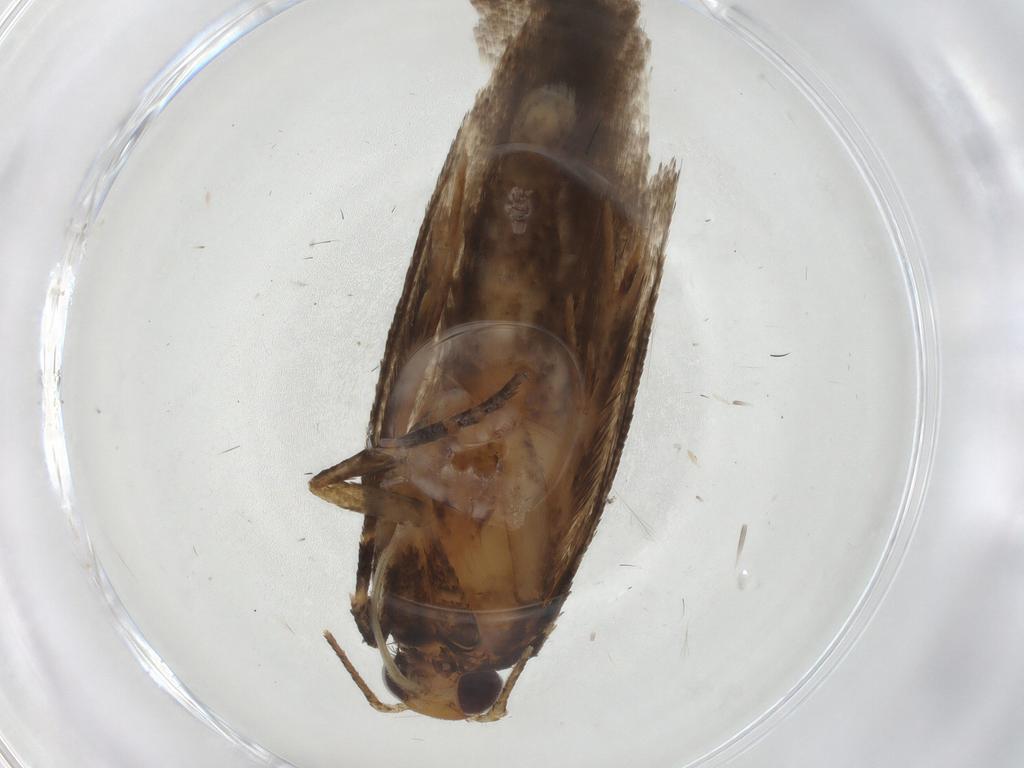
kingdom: Animalia
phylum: Arthropoda
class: Insecta
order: Lepidoptera
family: Gelechiidae
